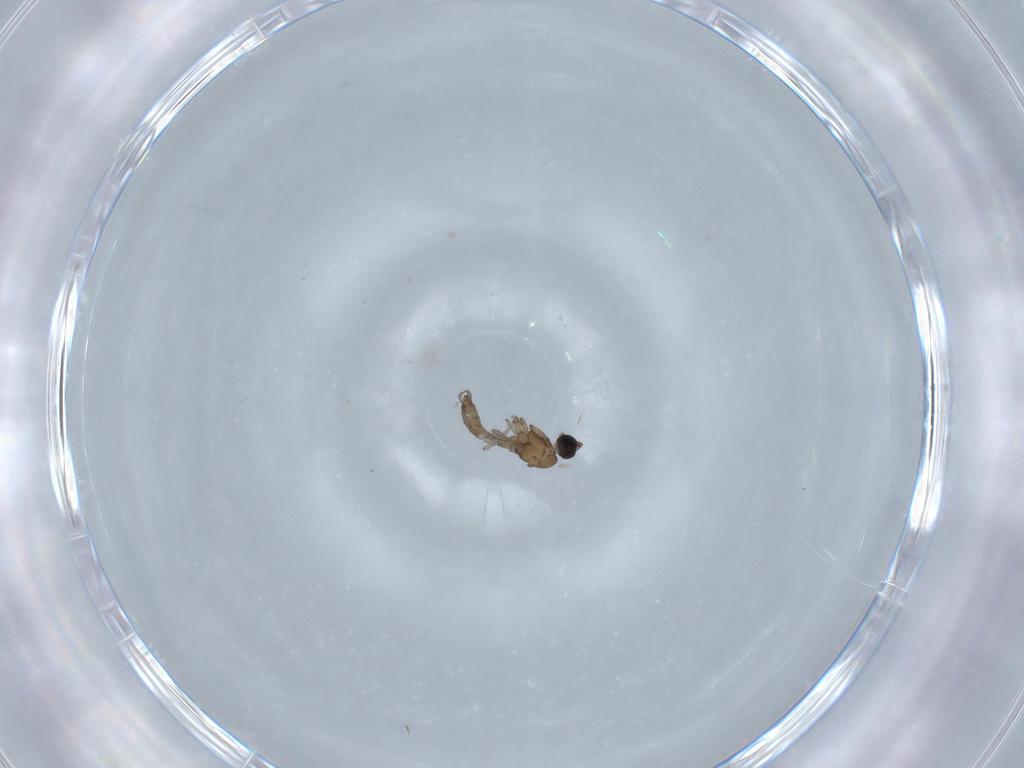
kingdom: Animalia
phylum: Arthropoda
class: Insecta
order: Diptera
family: Sciaridae
